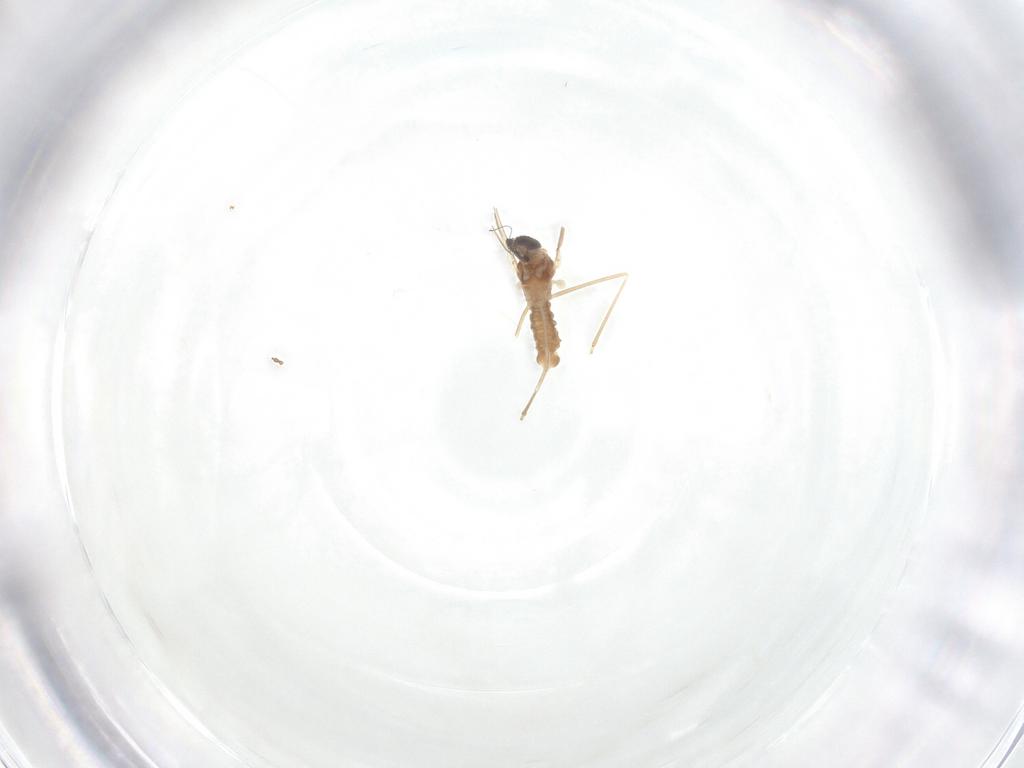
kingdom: Animalia
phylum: Arthropoda
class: Insecta
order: Diptera
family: Cecidomyiidae
